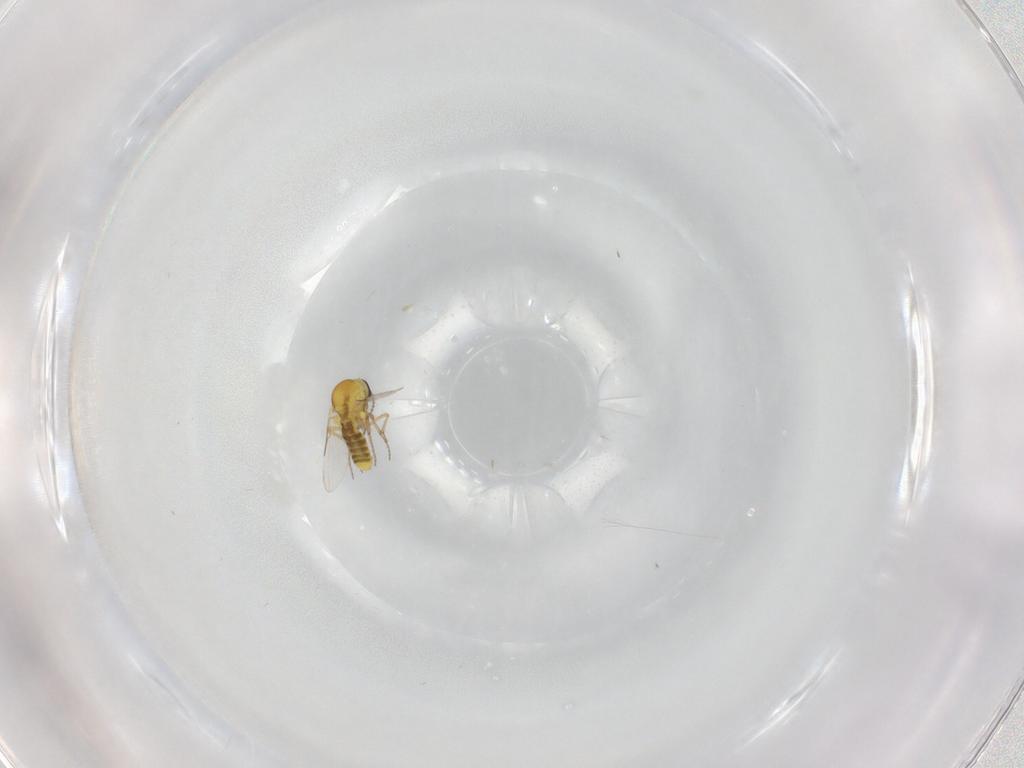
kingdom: Animalia
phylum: Arthropoda
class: Insecta
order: Diptera
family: Ceratopogonidae
